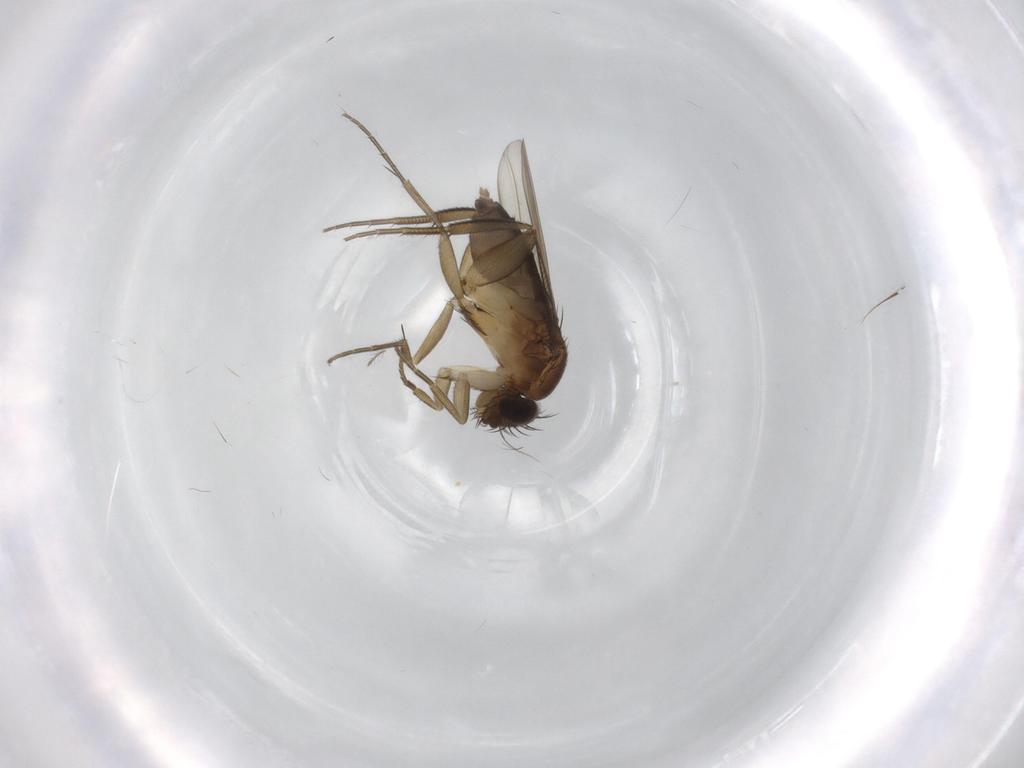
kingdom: Animalia
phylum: Arthropoda
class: Insecta
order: Diptera
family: Phoridae
